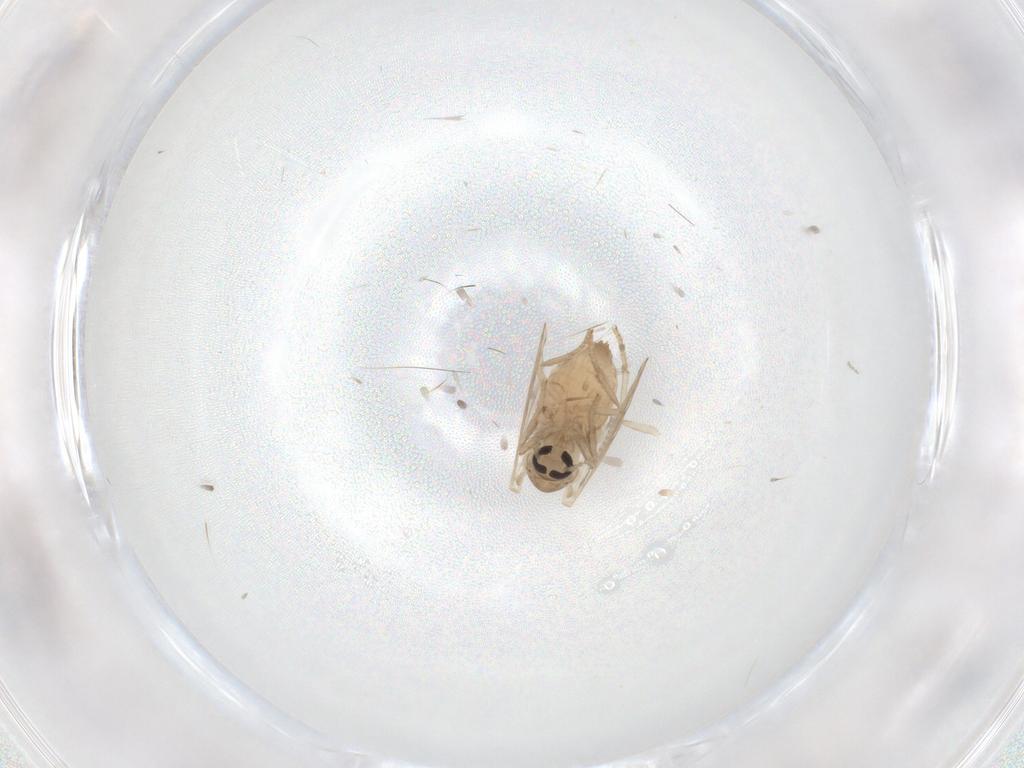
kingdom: Animalia
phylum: Arthropoda
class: Insecta
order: Diptera
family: Psychodidae
